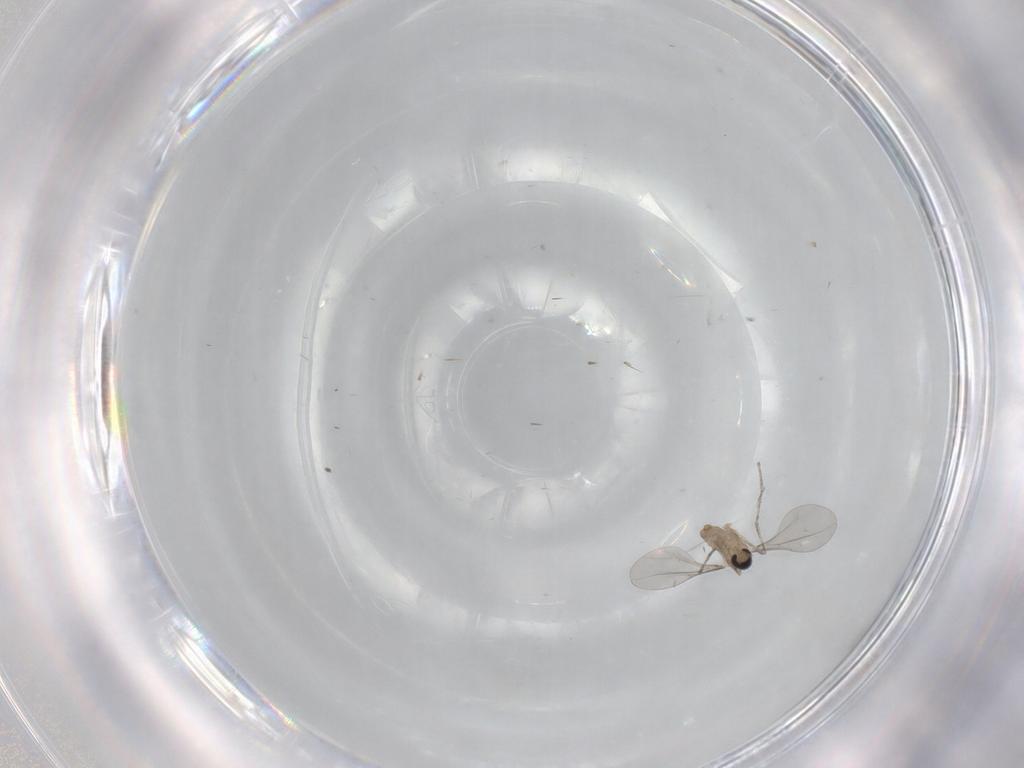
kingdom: Animalia
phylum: Arthropoda
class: Insecta
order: Diptera
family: Cecidomyiidae
